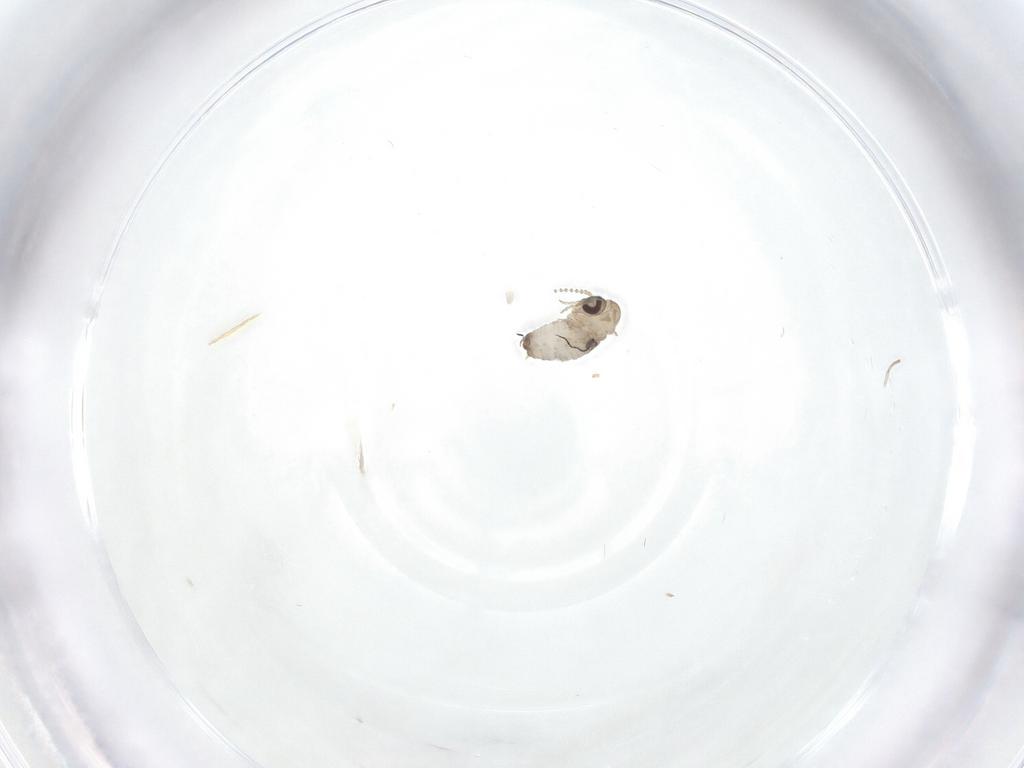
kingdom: Animalia
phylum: Arthropoda
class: Insecta
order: Diptera
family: Psychodidae
